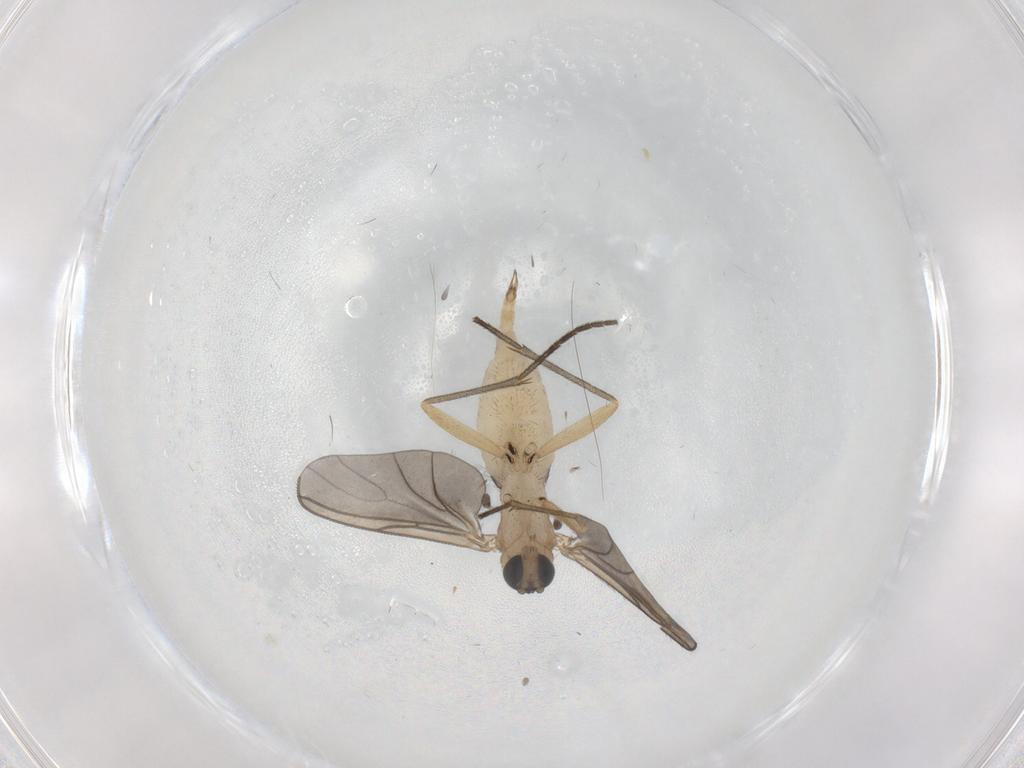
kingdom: Animalia
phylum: Arthropoda
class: Insecta
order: Diptera
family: Sciaridae
